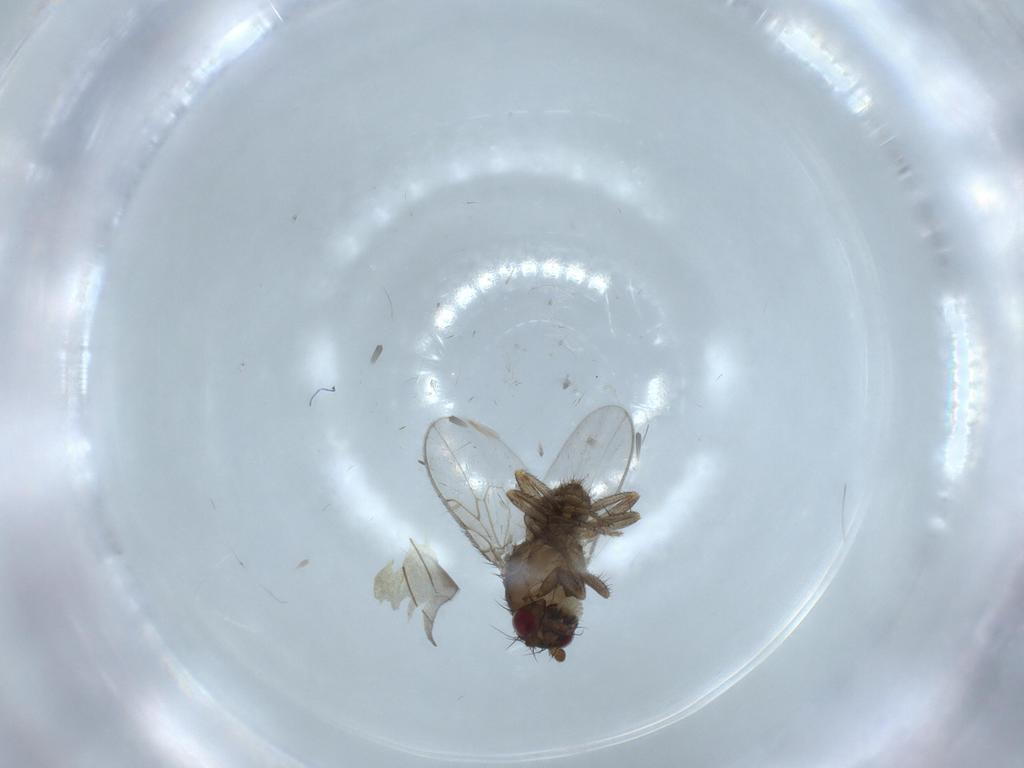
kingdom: Animalia
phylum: Arthropoda
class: Insecta
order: Diptera
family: Sphaeroceridae
